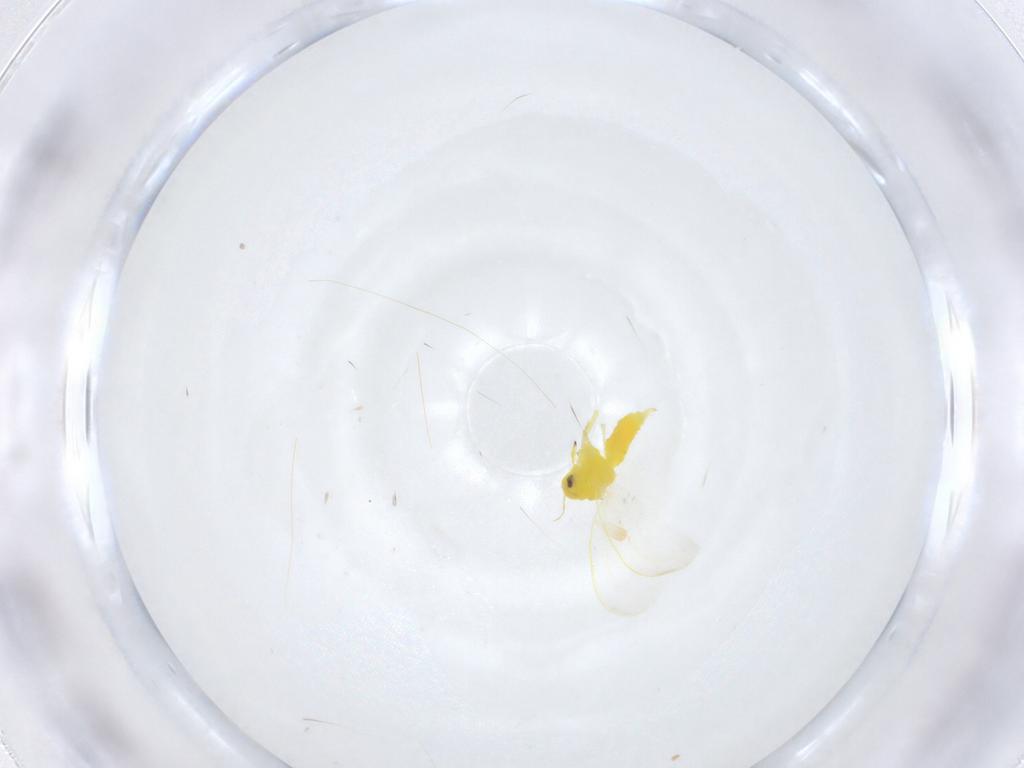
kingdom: Animalia
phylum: Arthropoda
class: Insecta
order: Hemiptera
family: Aleyrodidae
